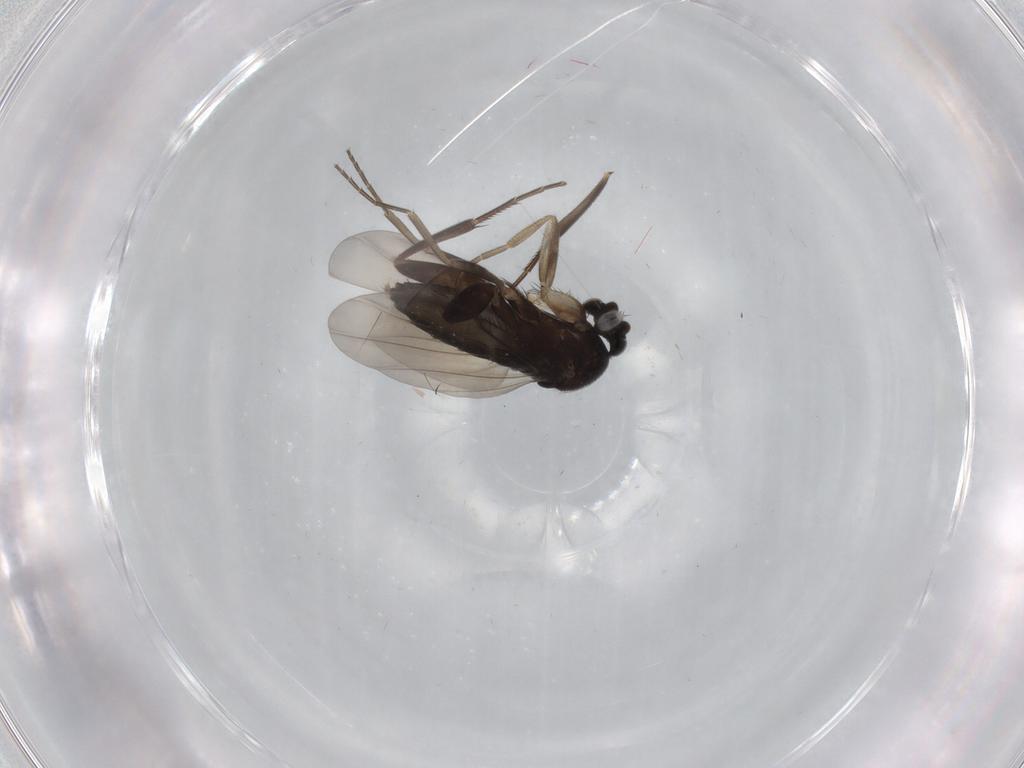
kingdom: Animalia
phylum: Arthropoda
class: Insecta
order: Diptera
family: Phoridae
